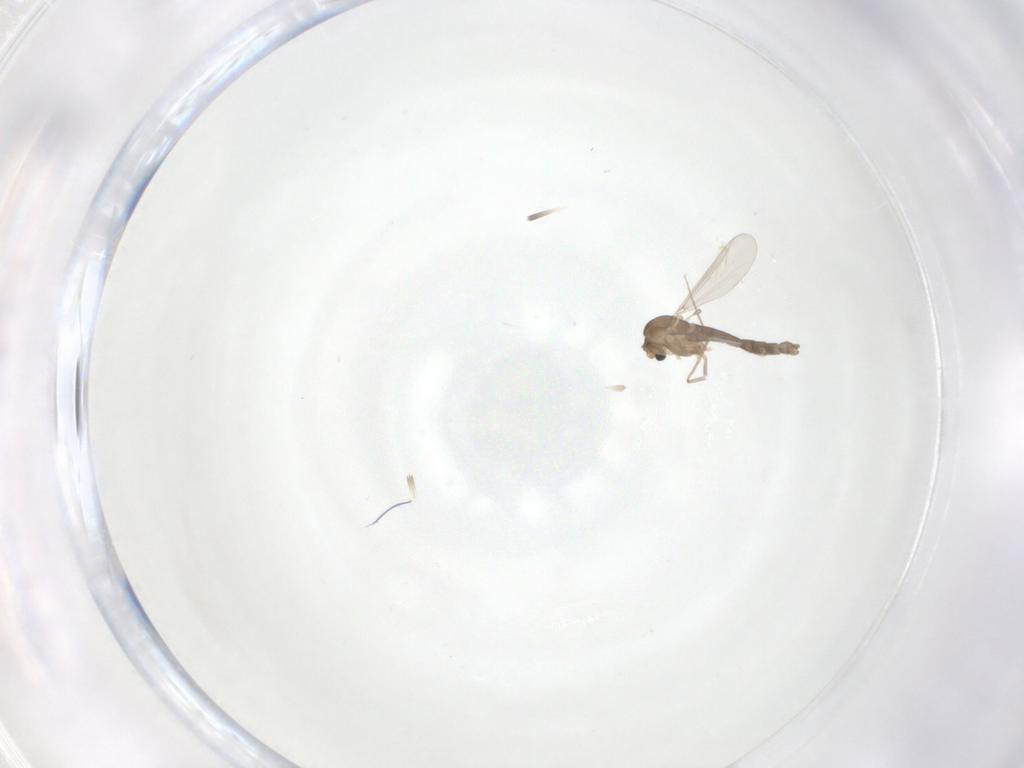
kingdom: Animalia
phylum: Arthropoda
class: Insecta
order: Diptera
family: Chironomidae
